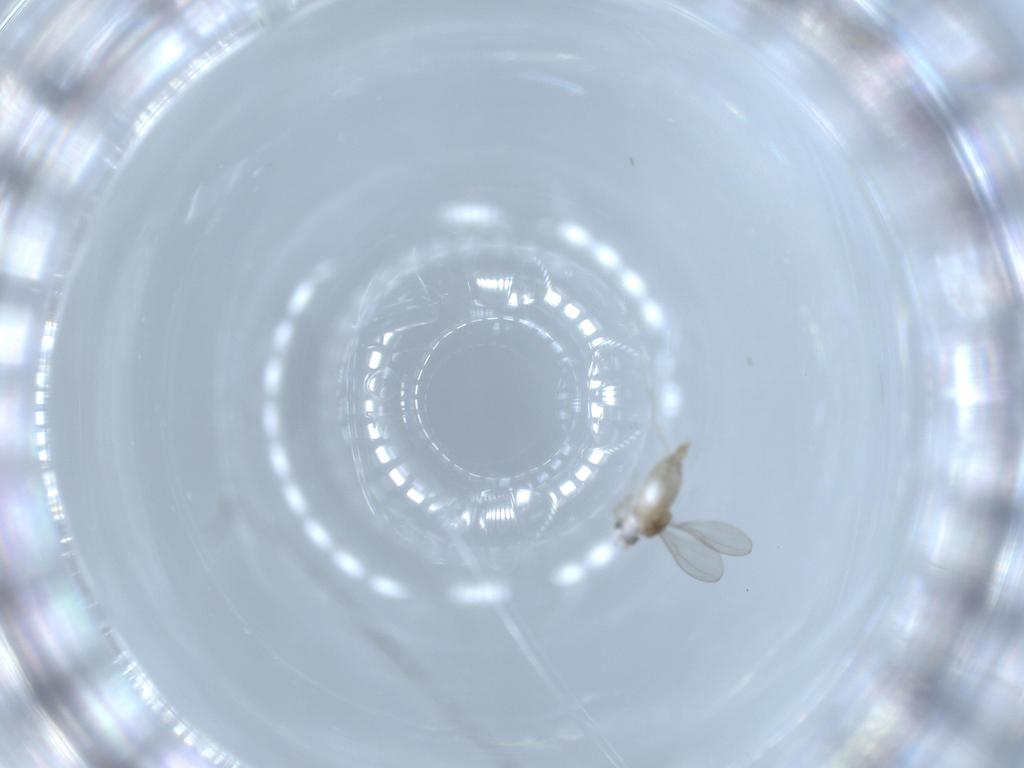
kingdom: Animalia
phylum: Arthropoda
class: Insecta
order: Diptera
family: Cecidomyiidae
